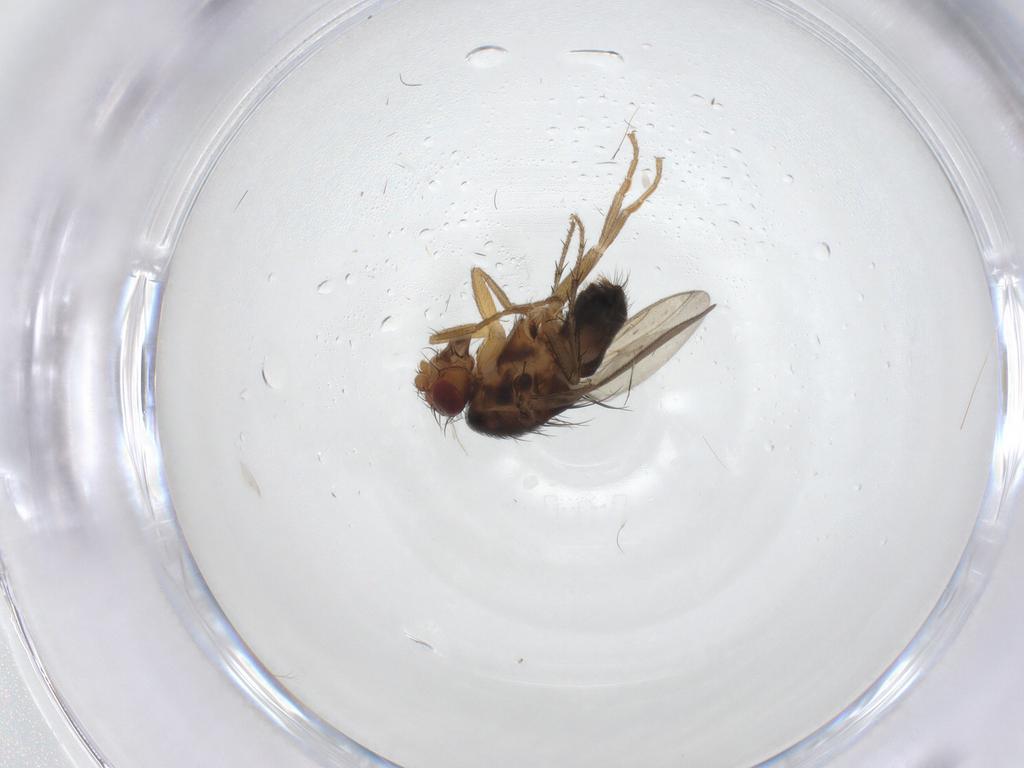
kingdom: Animalia
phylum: Arthropoda
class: Insecta
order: Diptera
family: Sphaeroceridae
